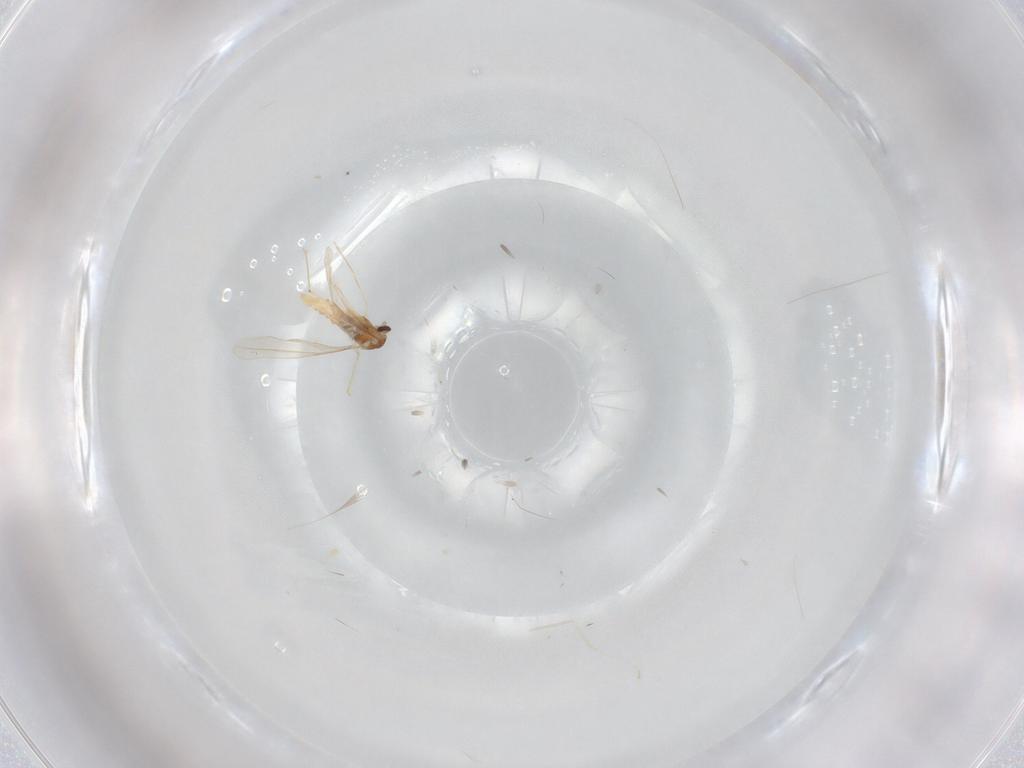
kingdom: Animalia
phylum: Arthropoda
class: Insecta
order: Diptera
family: Cecidomyiidae
